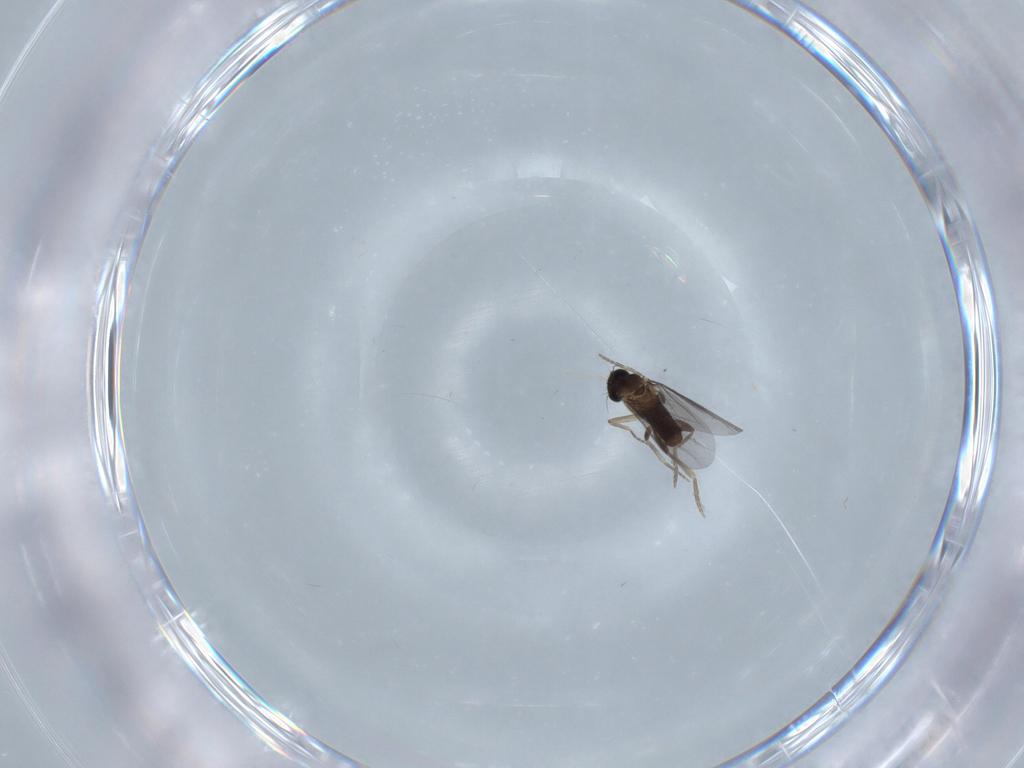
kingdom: Animalia
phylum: Arthropoda
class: Insecta
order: Diptera
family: Chironomidae
